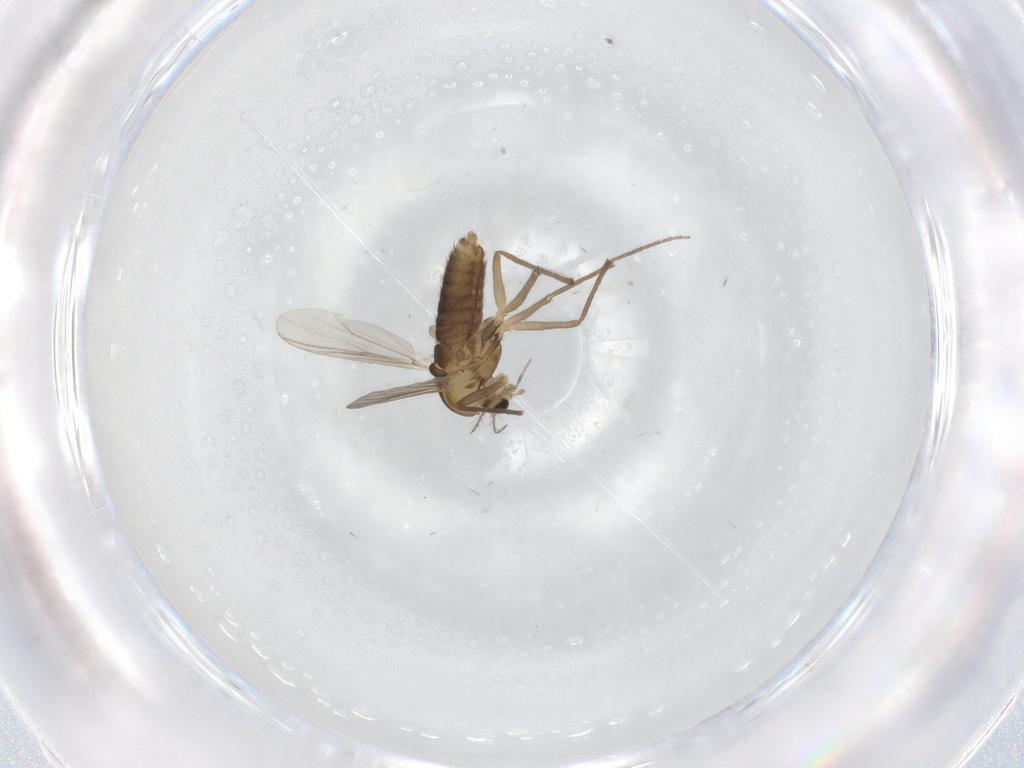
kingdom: Animalia
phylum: Arthropoda
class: Insecta
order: Diptera
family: Chironomidae
